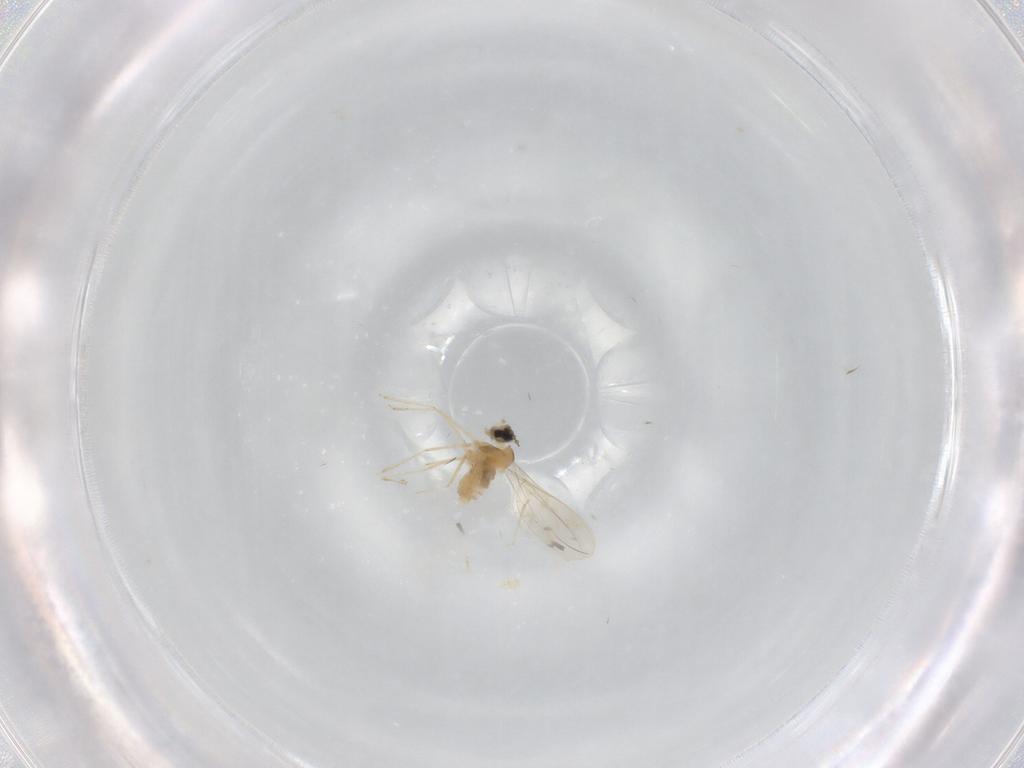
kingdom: Animalia
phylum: Arthropoda
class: Insecta
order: Diptera
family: Cecidomyiidae
